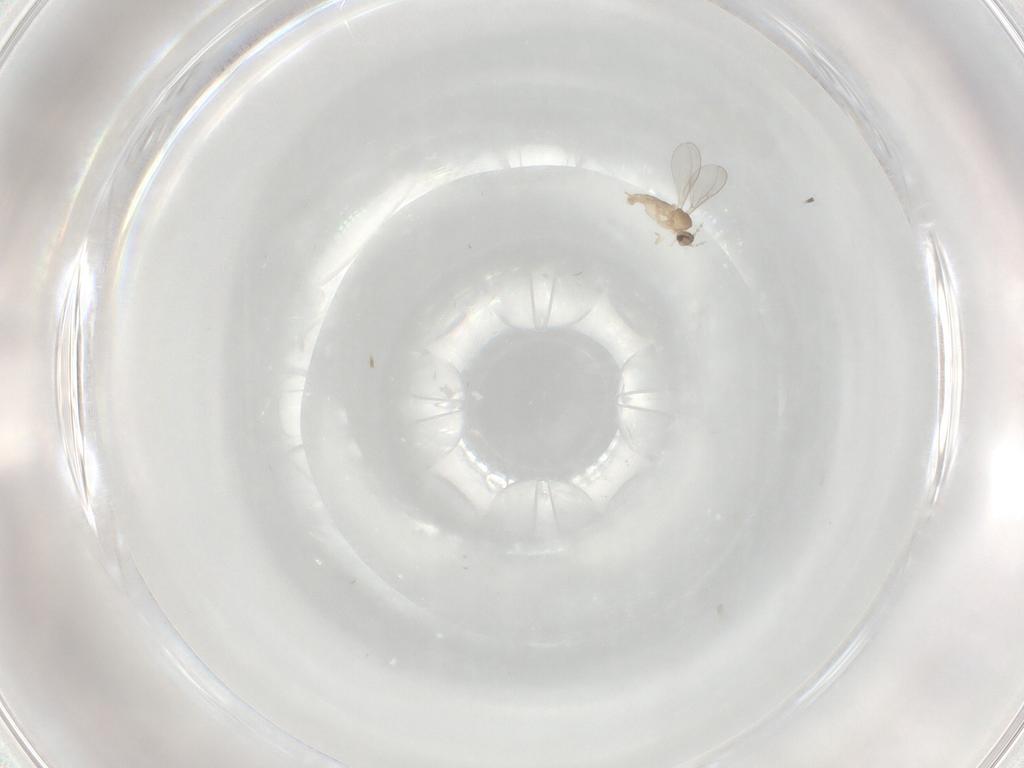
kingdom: Animalia
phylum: Arthropoda
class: Insecta
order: Diptera
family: Cecidomyiidae
